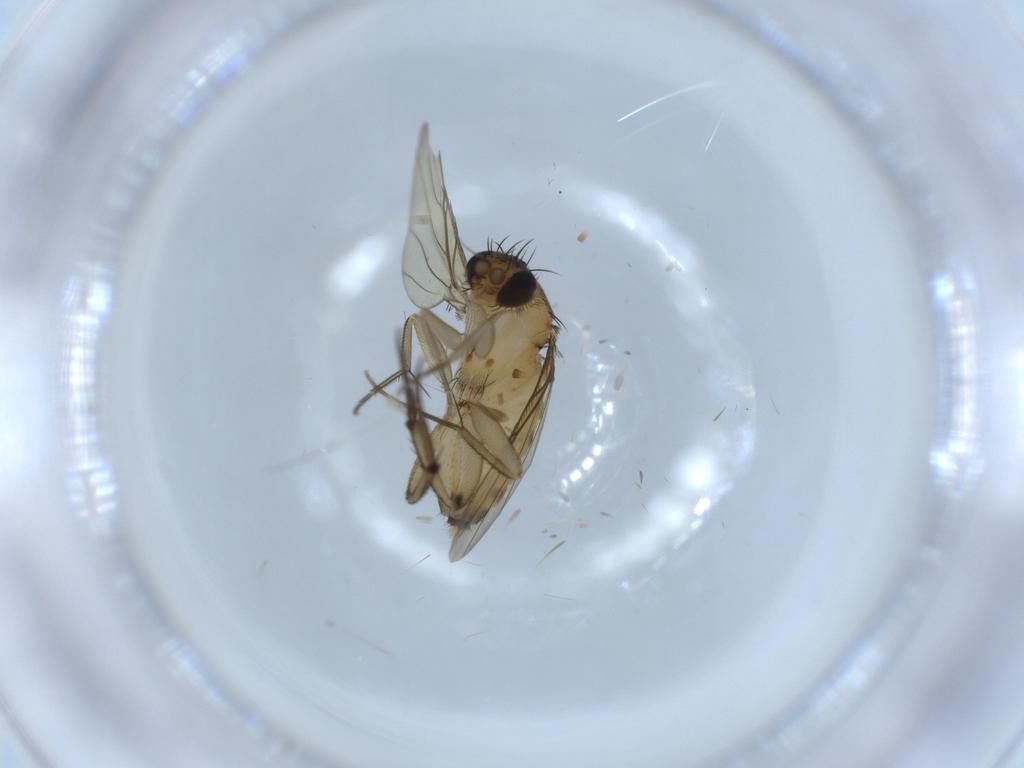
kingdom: Animalia
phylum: Arthropoda
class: Insecta
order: Diptera
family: Phoridae
